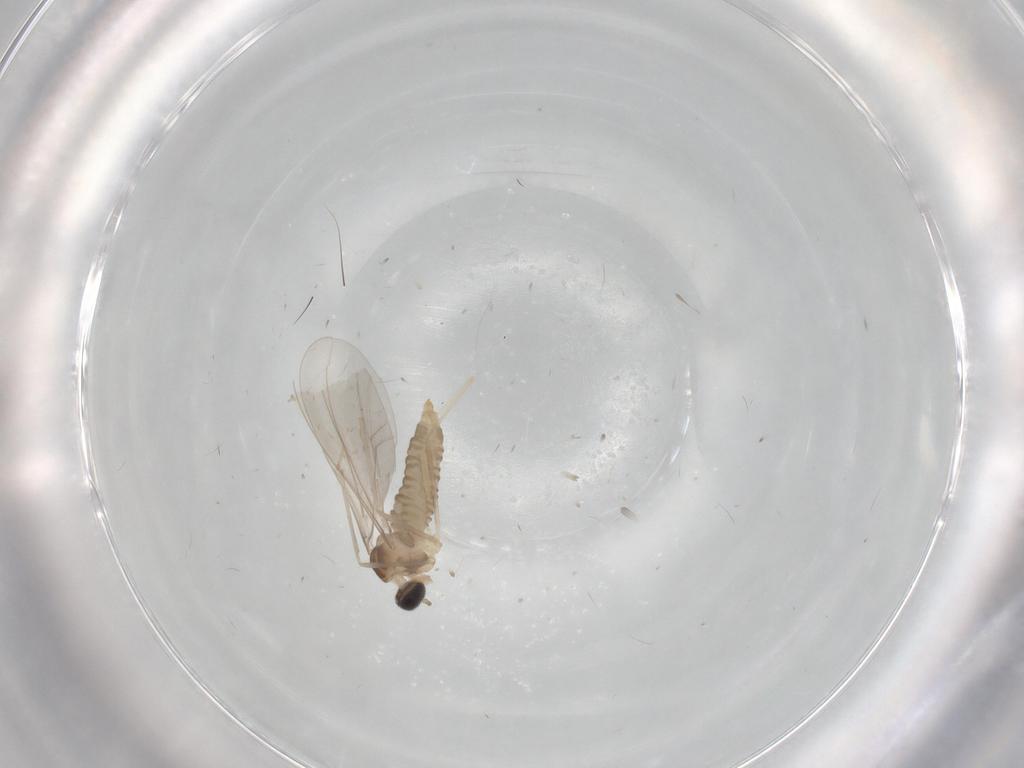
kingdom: Animalia
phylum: Arthropoda
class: Insecta
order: Diptera
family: Cecidomyiidae
